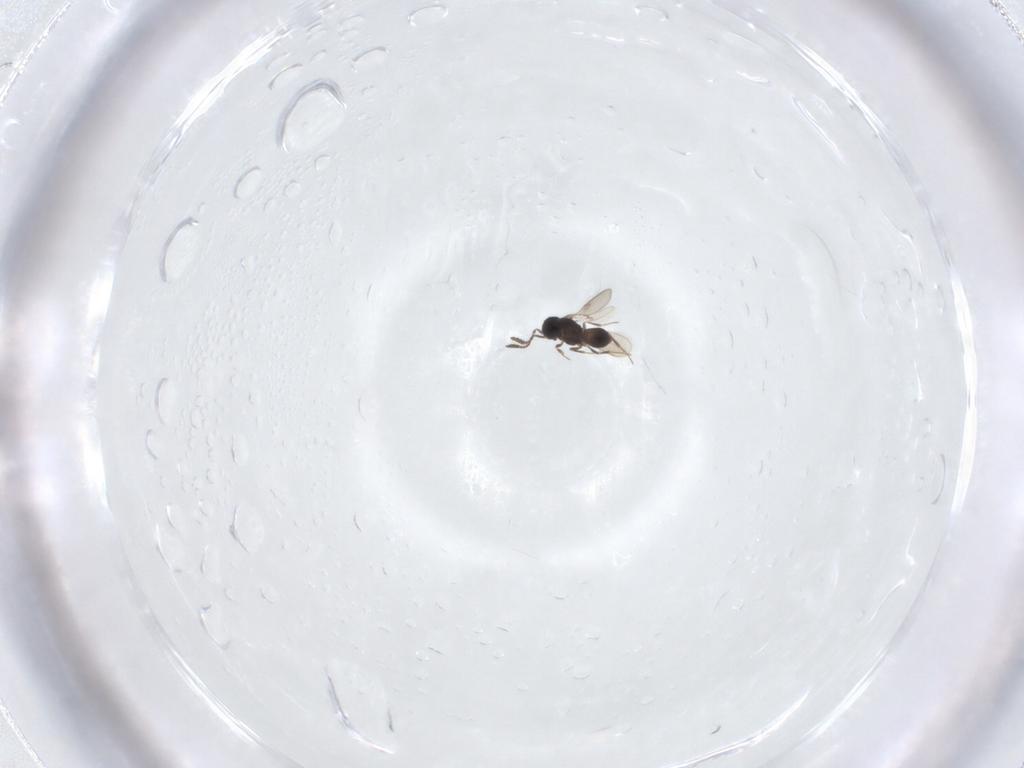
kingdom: Animalia
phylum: Arthropoda
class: Insecta
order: Hymenoptera
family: Scelionidae
